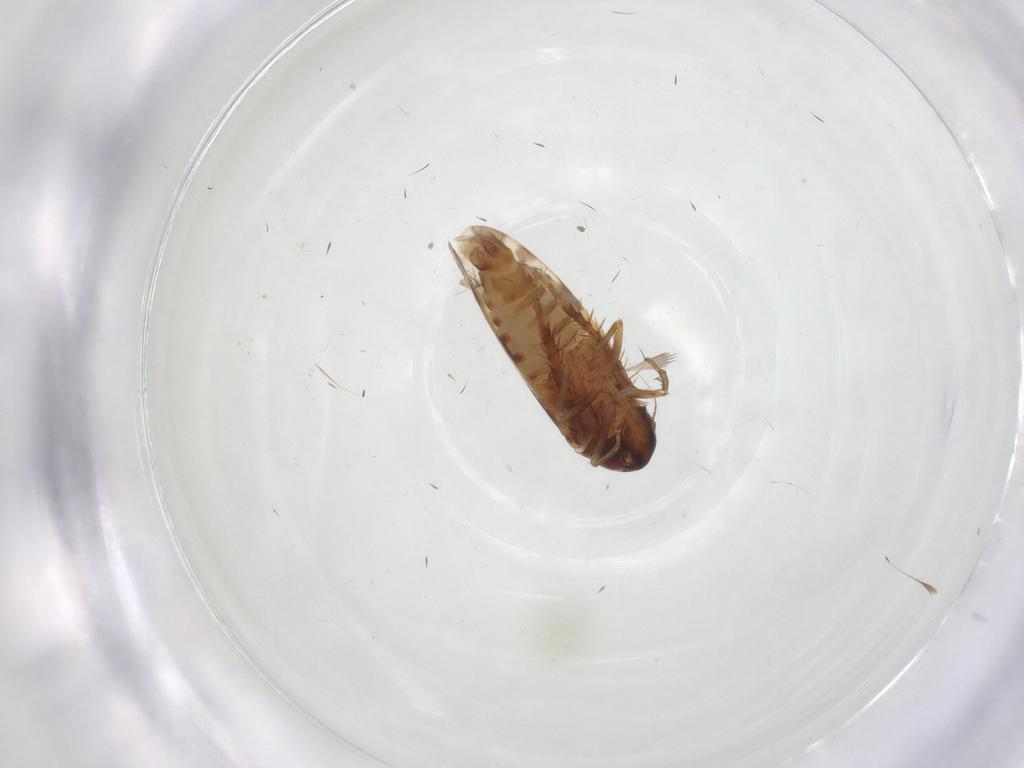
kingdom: Animalia
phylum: Arthropoda
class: Insecta
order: Hemiptera
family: Cicadellidae
